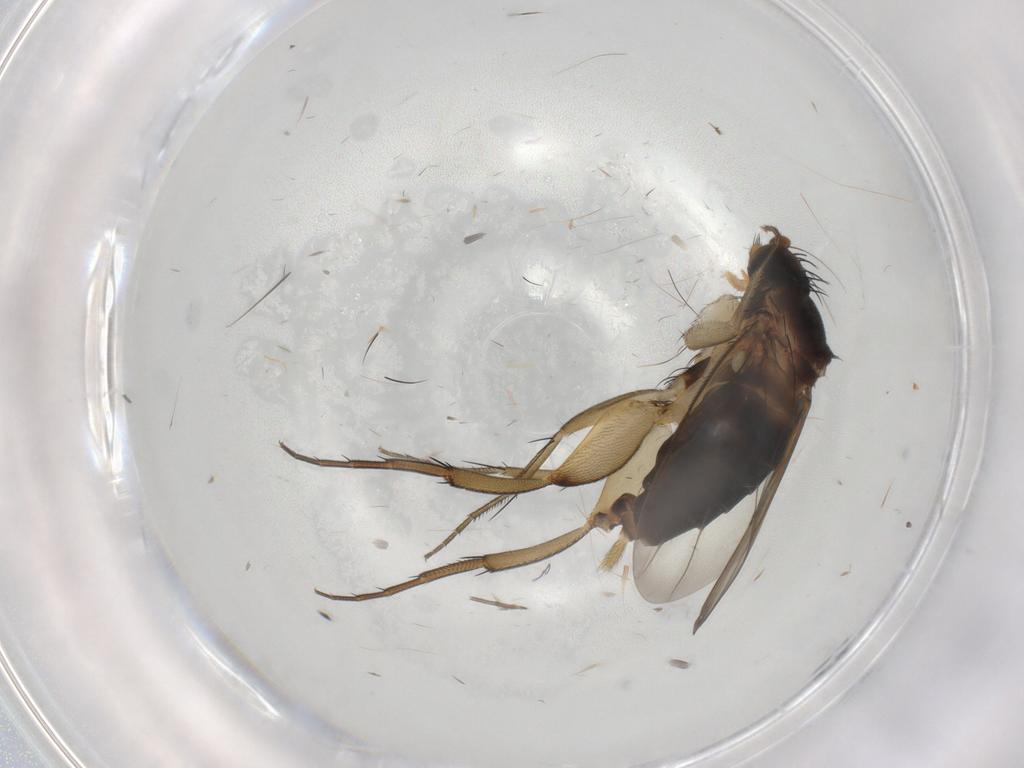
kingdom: Animalia
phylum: Arthropoda
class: Insecta
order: Diptera
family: Phoridae
